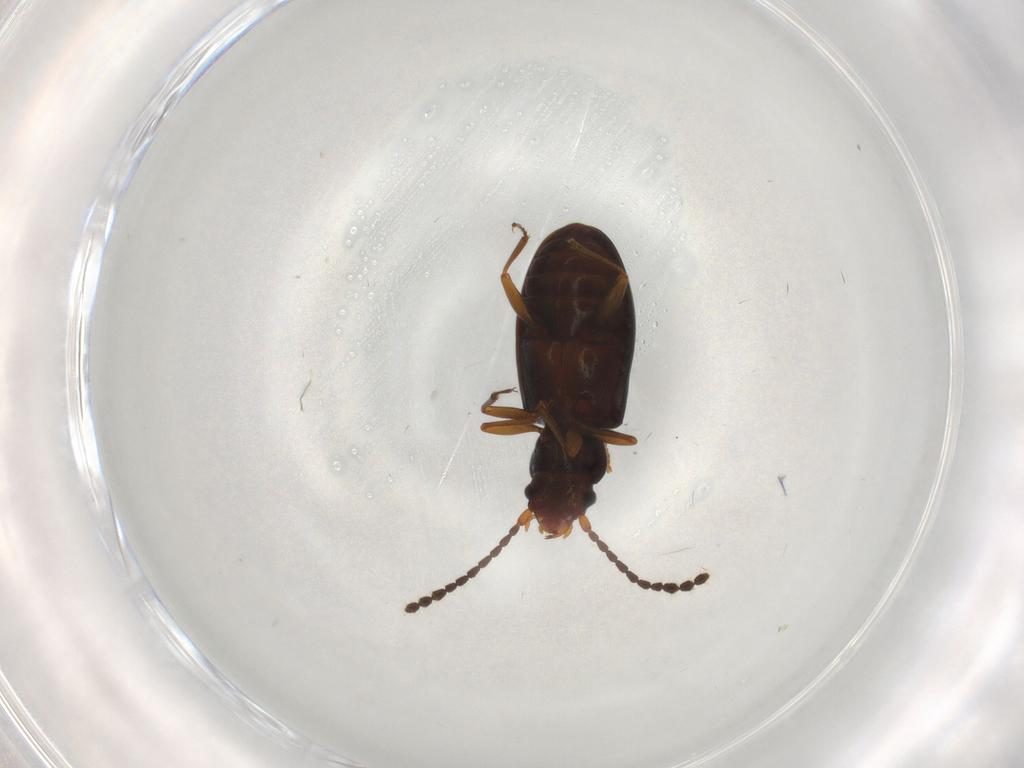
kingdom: Animalia
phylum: Arthropoda
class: Insecta
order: Coleoptera
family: Laemophloeidae
